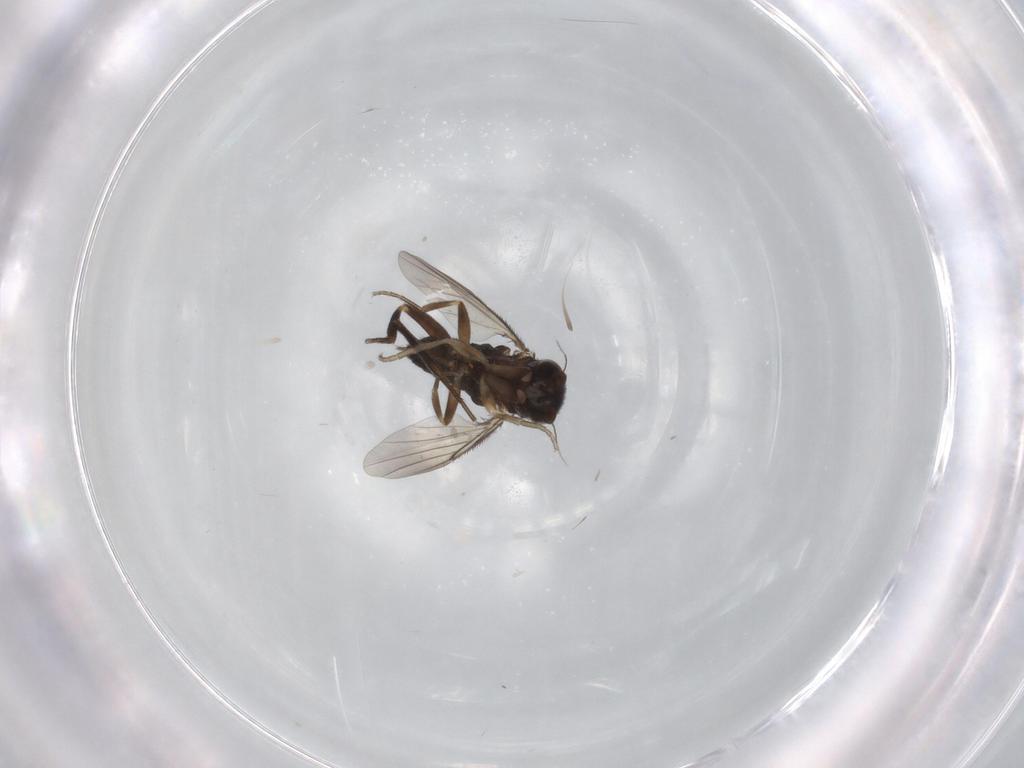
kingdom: Animalia
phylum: Arthropoda
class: Insecta
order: Diptera
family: Phoridae
